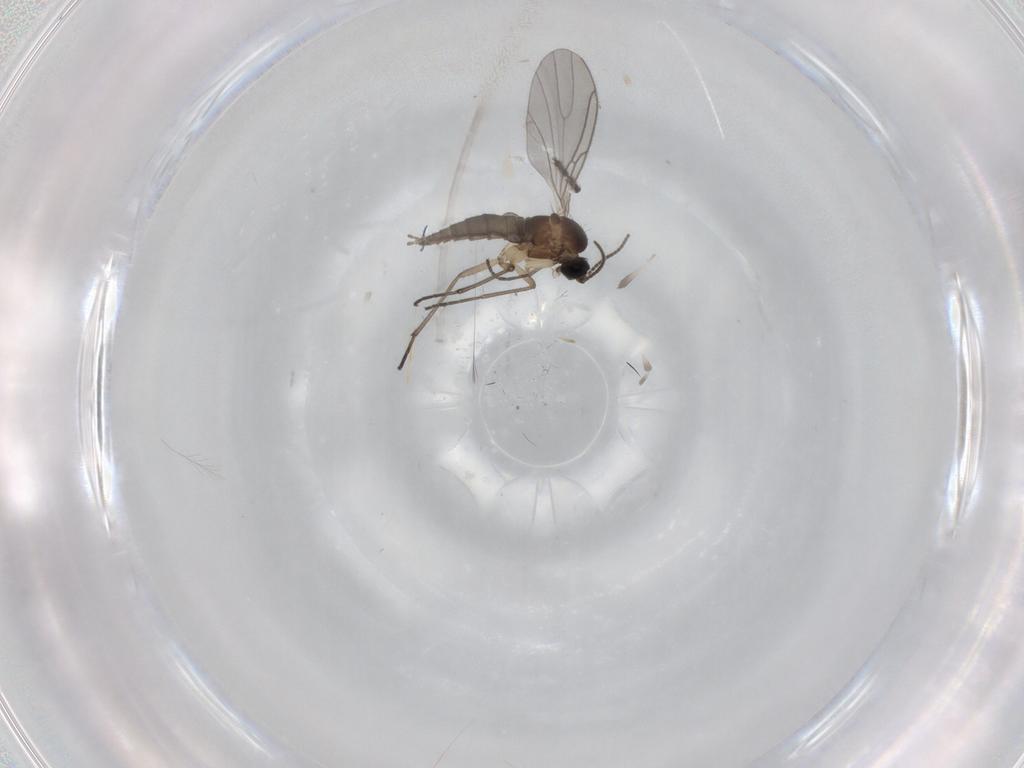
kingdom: Animalia
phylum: Arthropoda
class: Insecta
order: Diptera
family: Sciaridae
